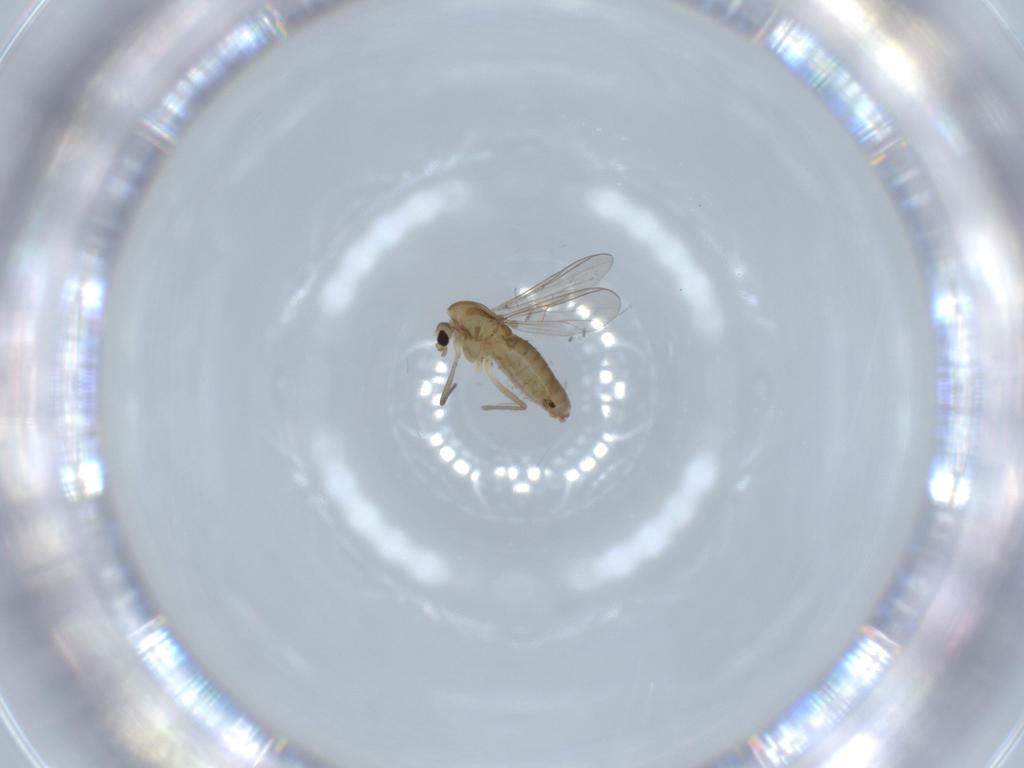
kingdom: Animalia
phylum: Arthropoda
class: Insecta
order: Diptera
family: Chironomidae
